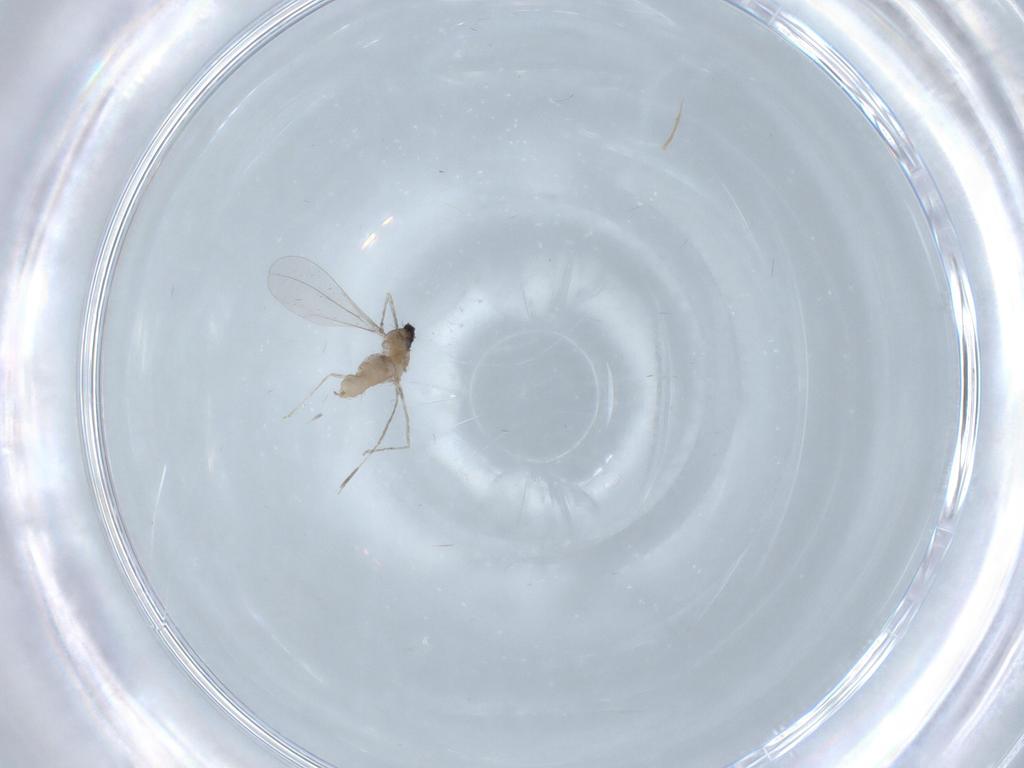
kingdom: Animalia
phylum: Arthropoda
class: Insecta
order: Diptera
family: Cecidomyiidae
